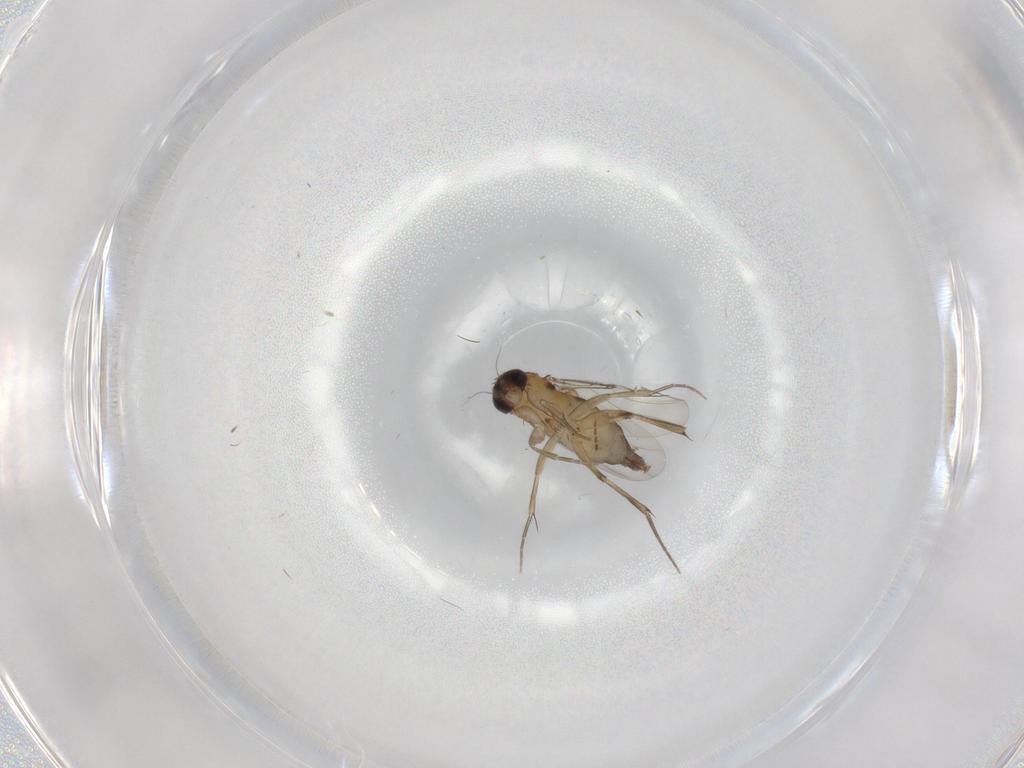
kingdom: Animalia
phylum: Arthropoda
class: Insecta
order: Diptera
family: Phoridae
